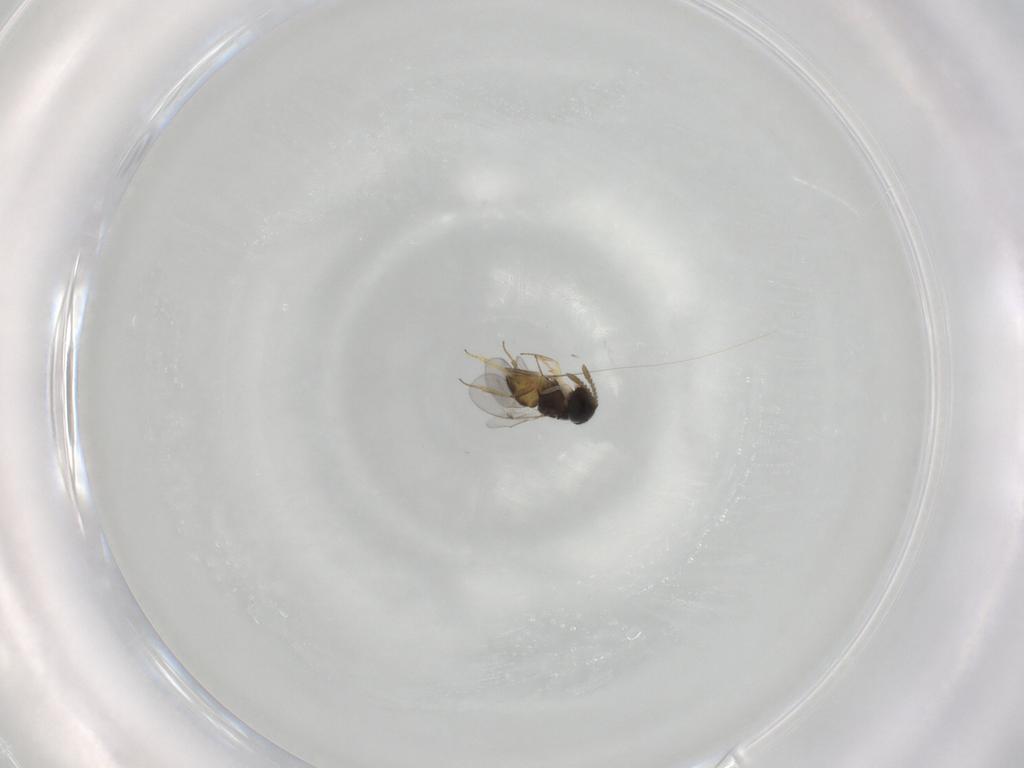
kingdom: Animalia
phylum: Arthropoda
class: Insecta
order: Hymenoptera
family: Encyrtidae
